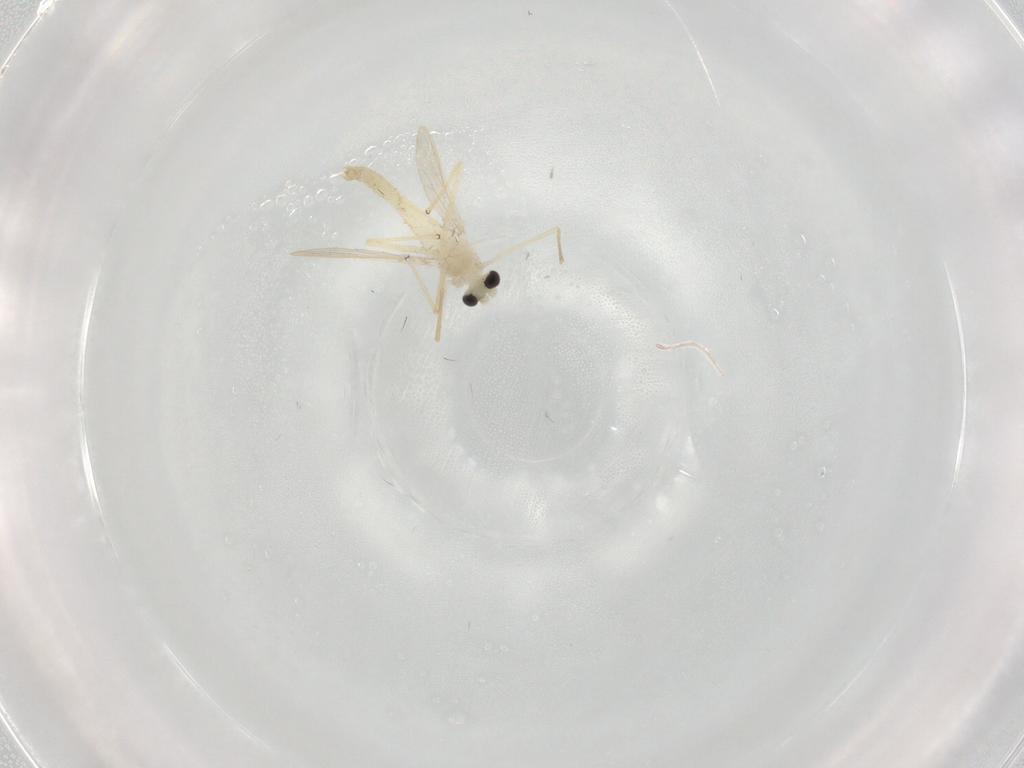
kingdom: Animalia
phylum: Arthropoda
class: Insecta
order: Diptera
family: Chironomidae
